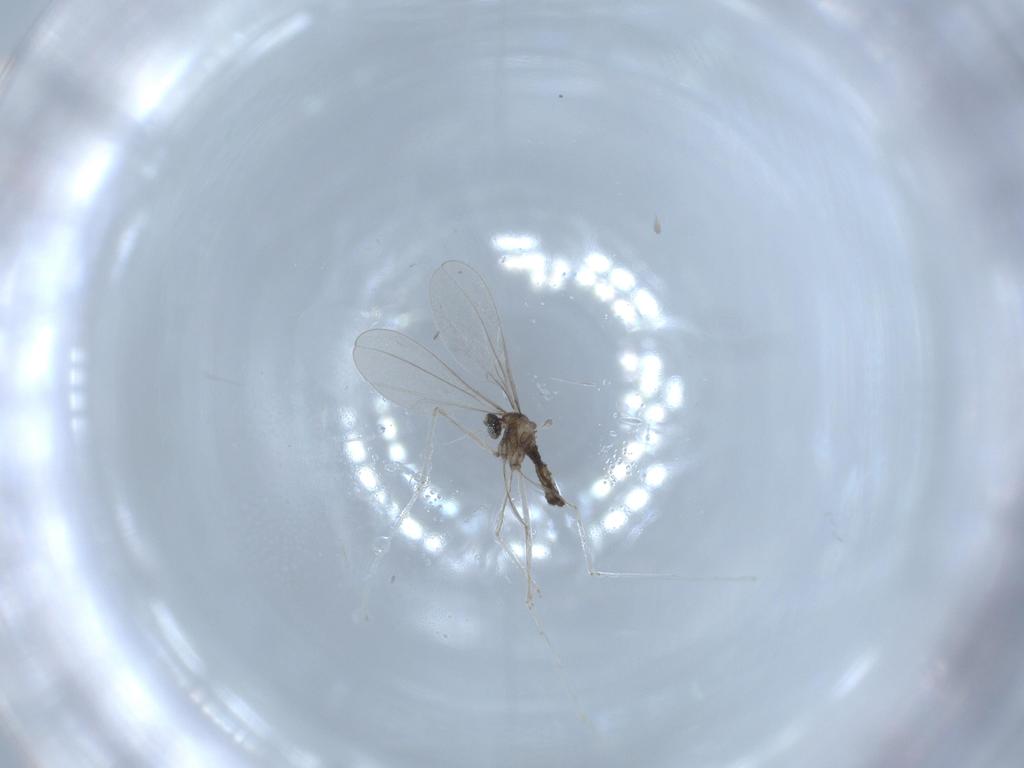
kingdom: Animalia
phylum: Arthropoda
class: Insecta
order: Diptera
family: Cecidomyiidae
